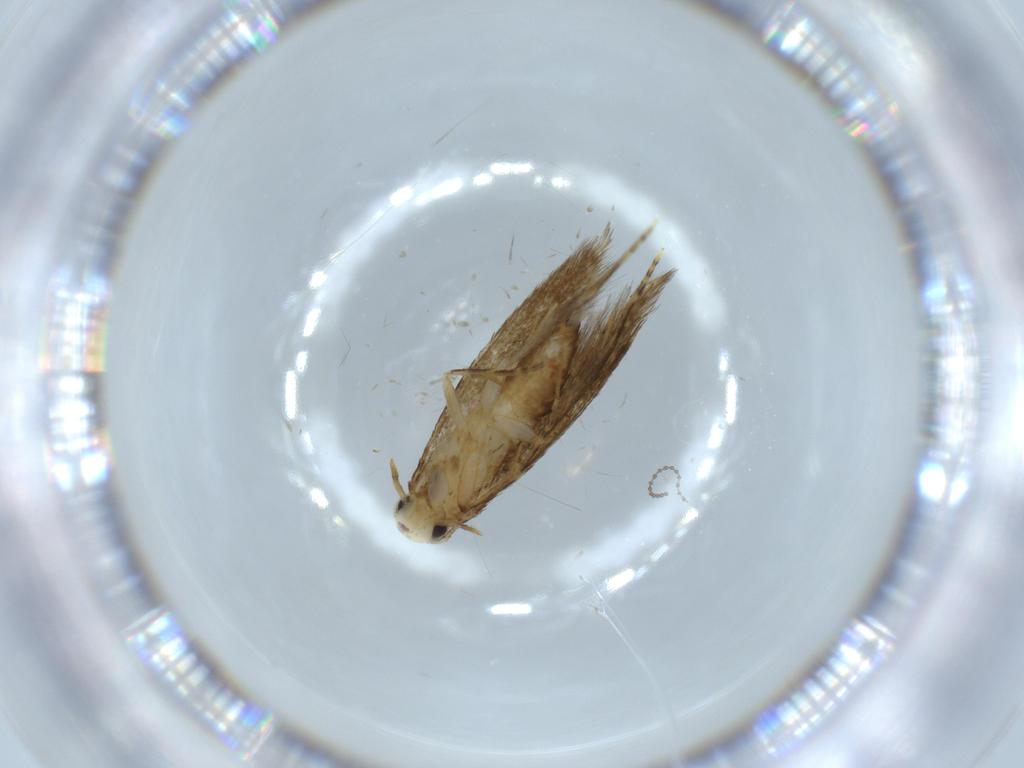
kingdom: Animalia
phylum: Arthropoda
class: Insecta
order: Lepidoptera
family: Tineidae
